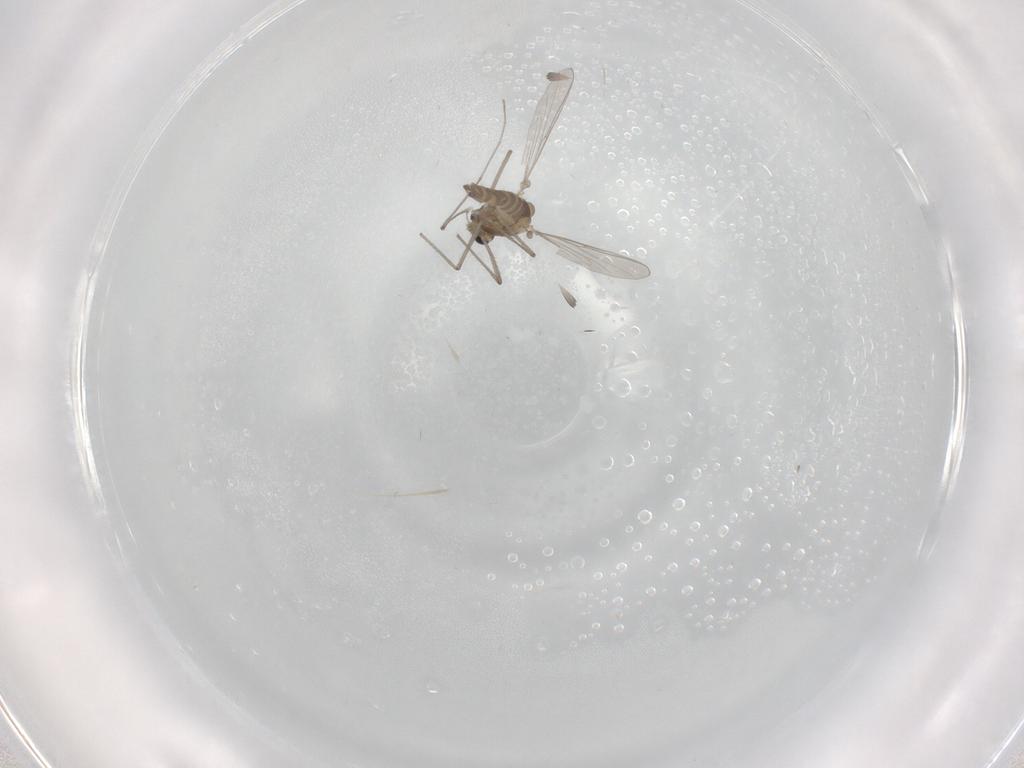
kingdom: Animalia
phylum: Arthropoda
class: Insecta
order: Diptera
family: Chironomidae
